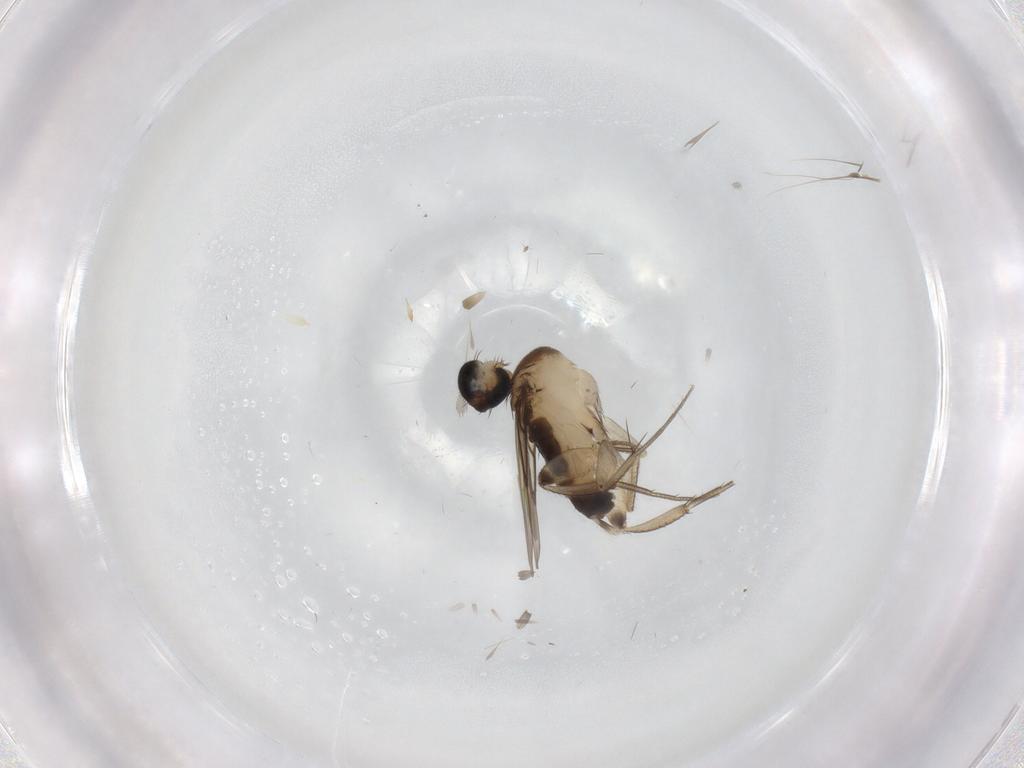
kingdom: Animalia
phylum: Arthropoda
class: Insecta
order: Diptera
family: Phoridae
